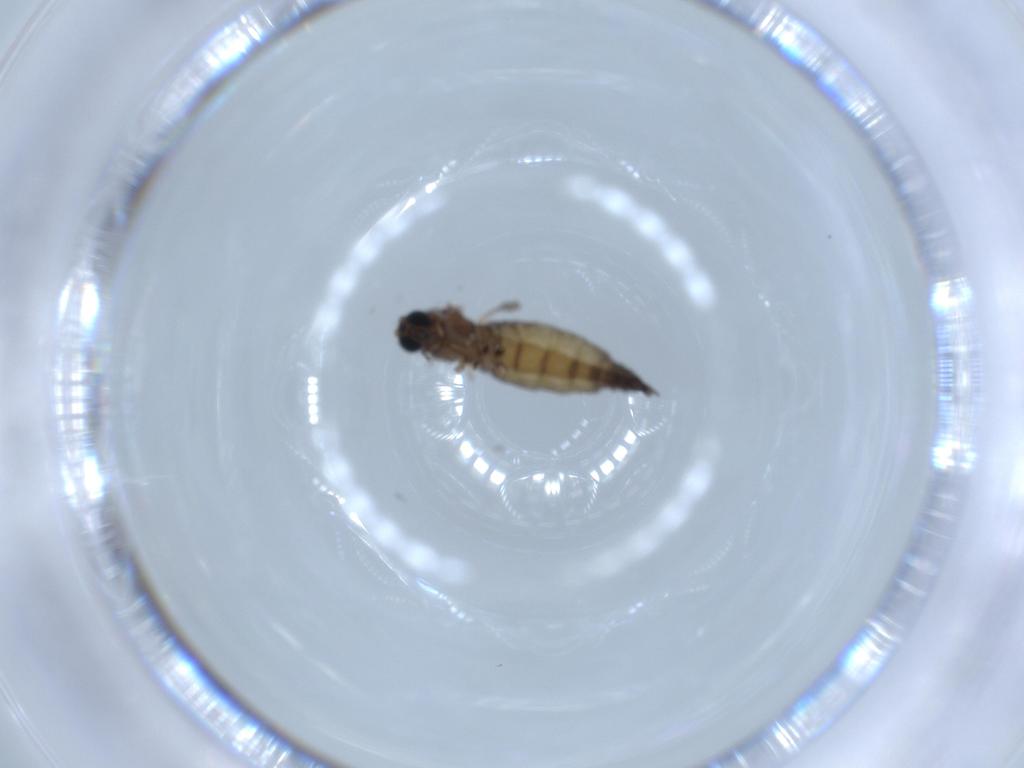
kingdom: Animalia
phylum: Arthropoda
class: Insecta
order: Diptera
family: Sciaridae
